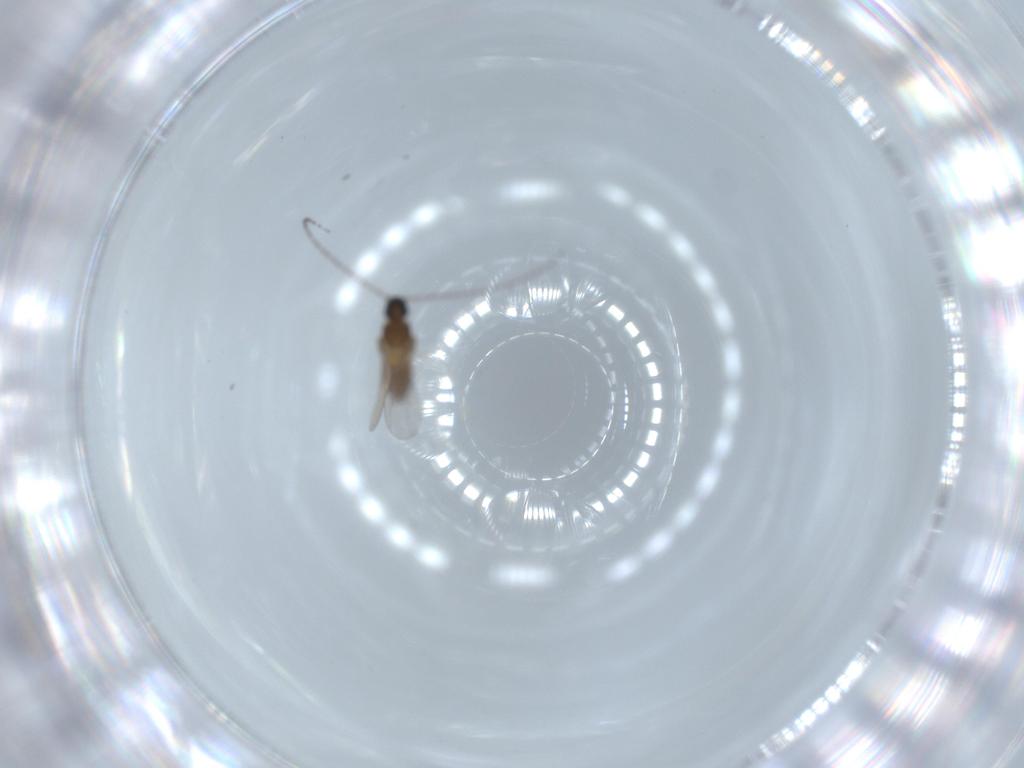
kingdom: Animalia
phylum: Arthropoda
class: Insecta
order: Diptera
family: Cecidomyiidae
